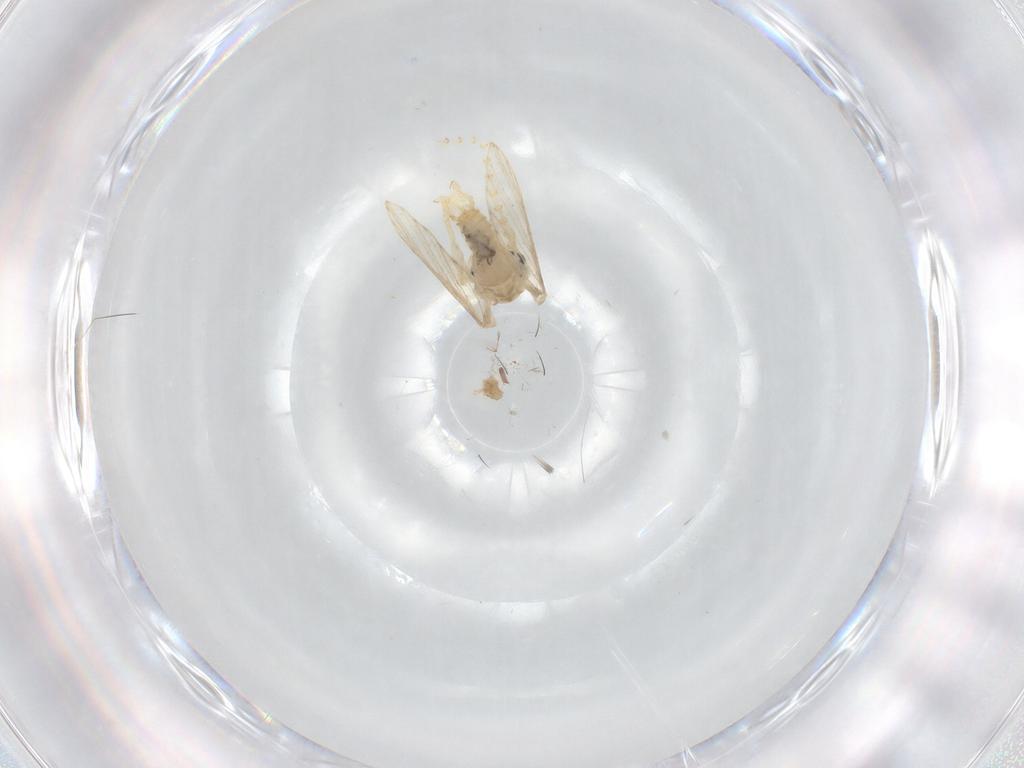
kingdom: Animalia
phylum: Arthropoda
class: Insecta
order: Diptera
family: Psychodidae
